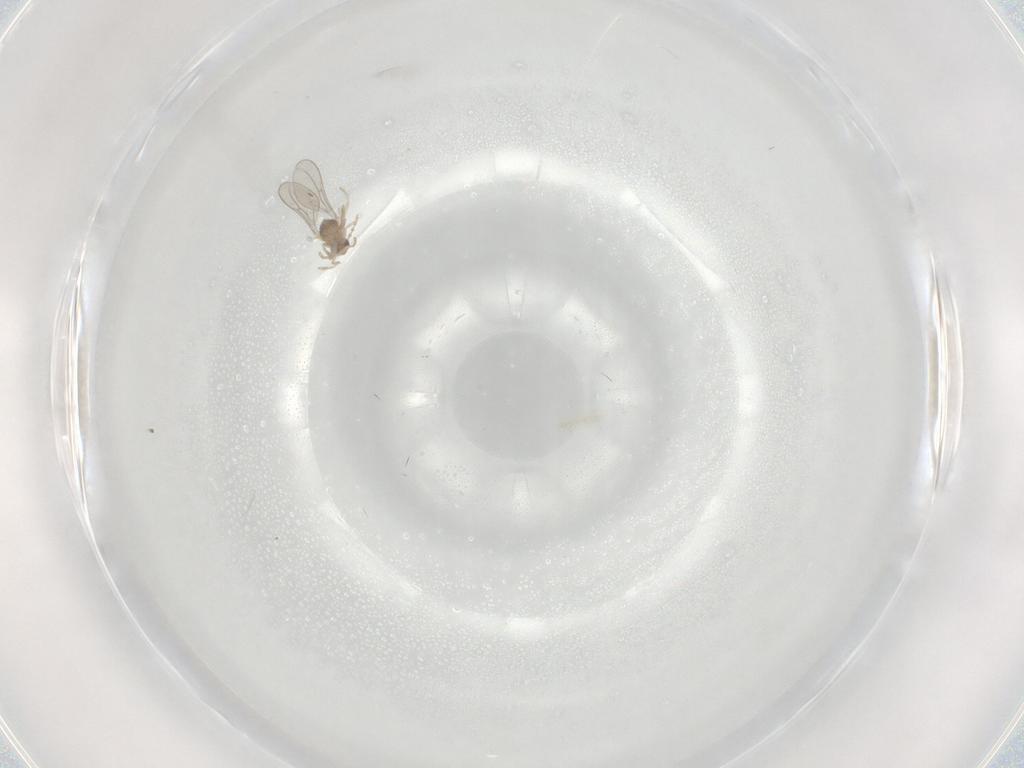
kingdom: Animalia
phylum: Arthropoda
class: Insecta
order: Diptera
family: Cecidomyiidae
